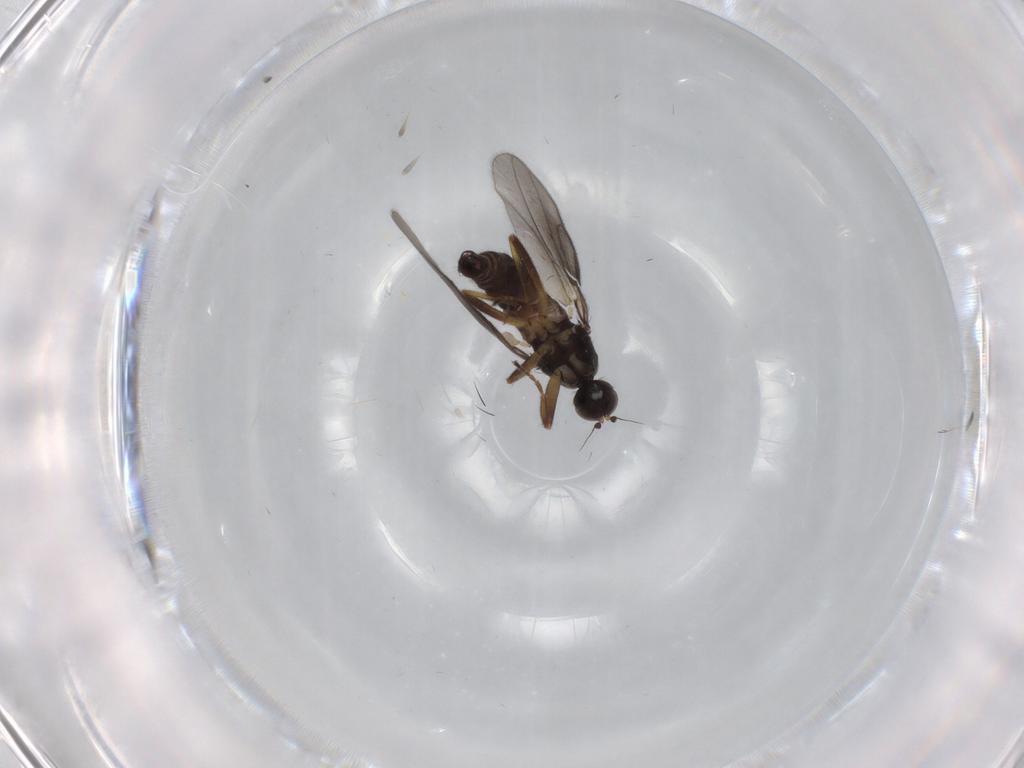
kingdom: Animalia
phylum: Arthropoda
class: Insecta
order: Diptera
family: Hybotidae
